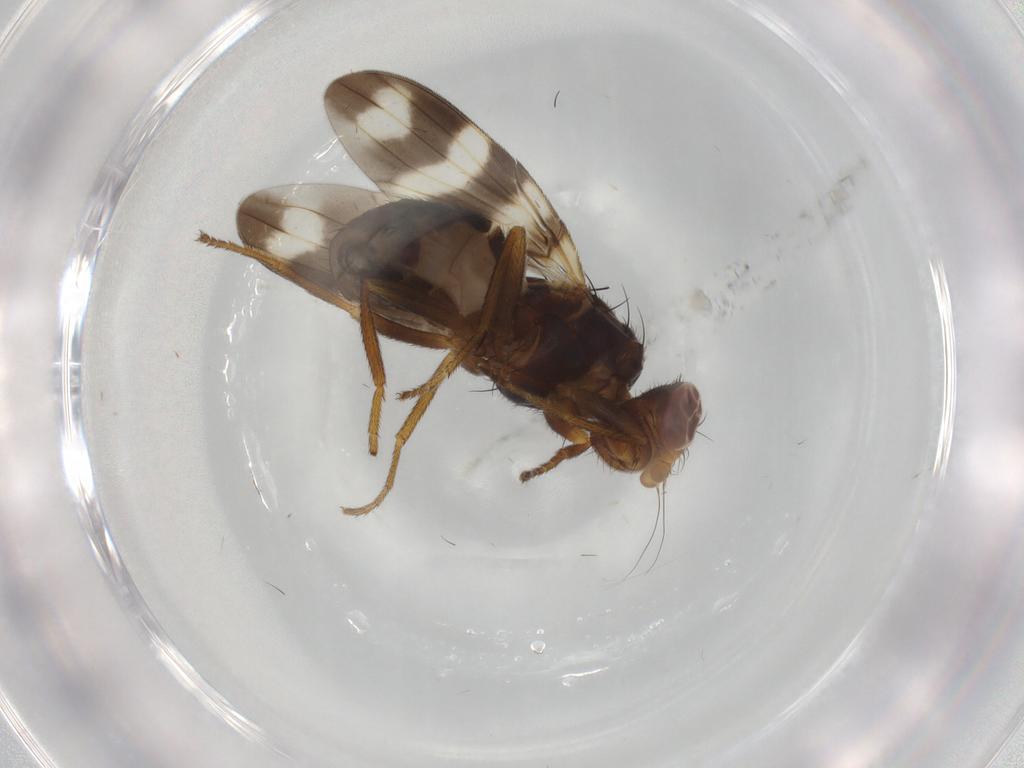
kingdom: Animalia
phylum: Arthropoda
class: Insecta
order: Diptera
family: Ulidiidae
